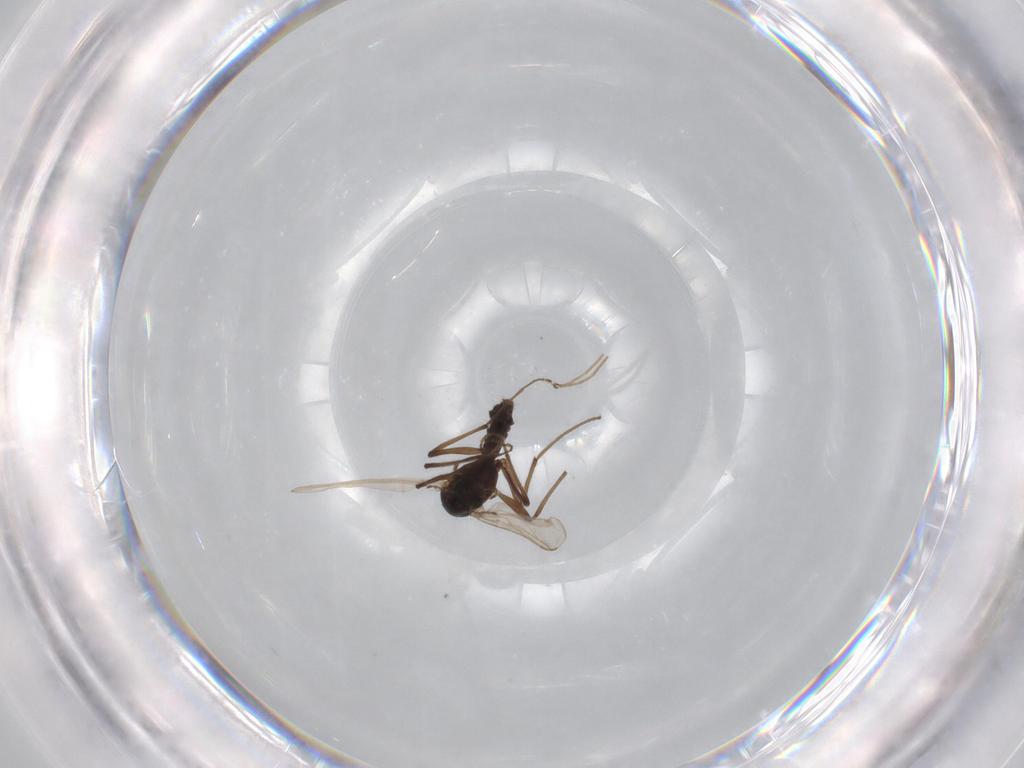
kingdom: Animalia
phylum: Arthropoda
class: Insecta
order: Diptera
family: Chironomidae
